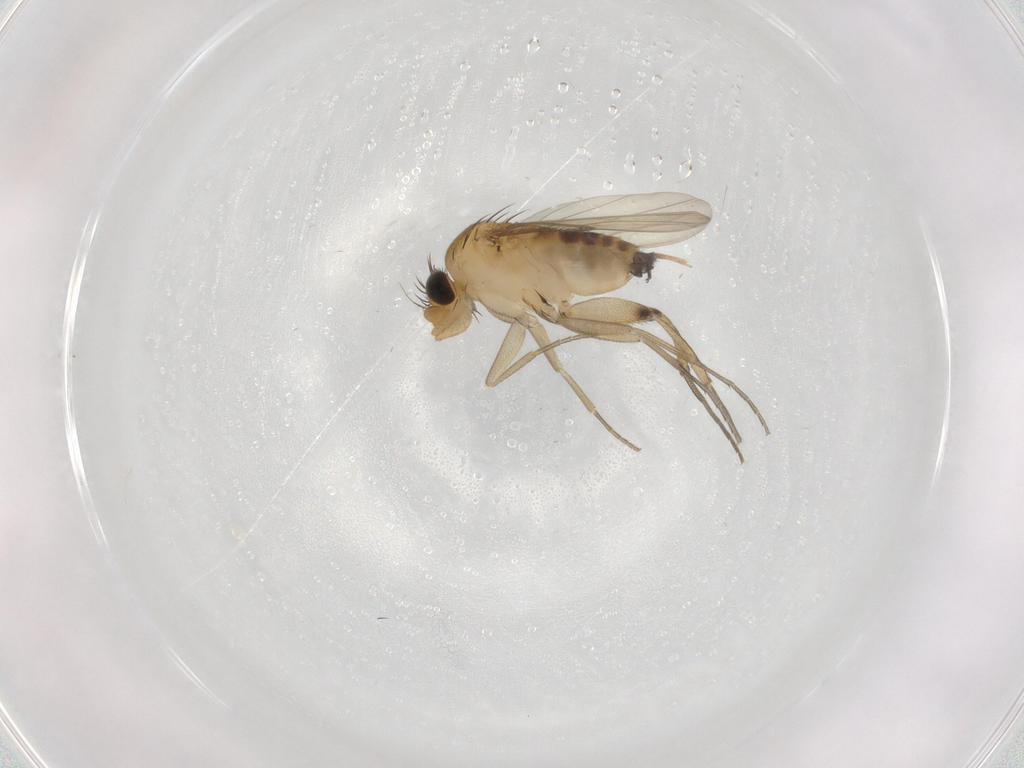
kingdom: Animalia
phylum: Arthropoda
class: Insecta
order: Diptera
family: Phoridae
